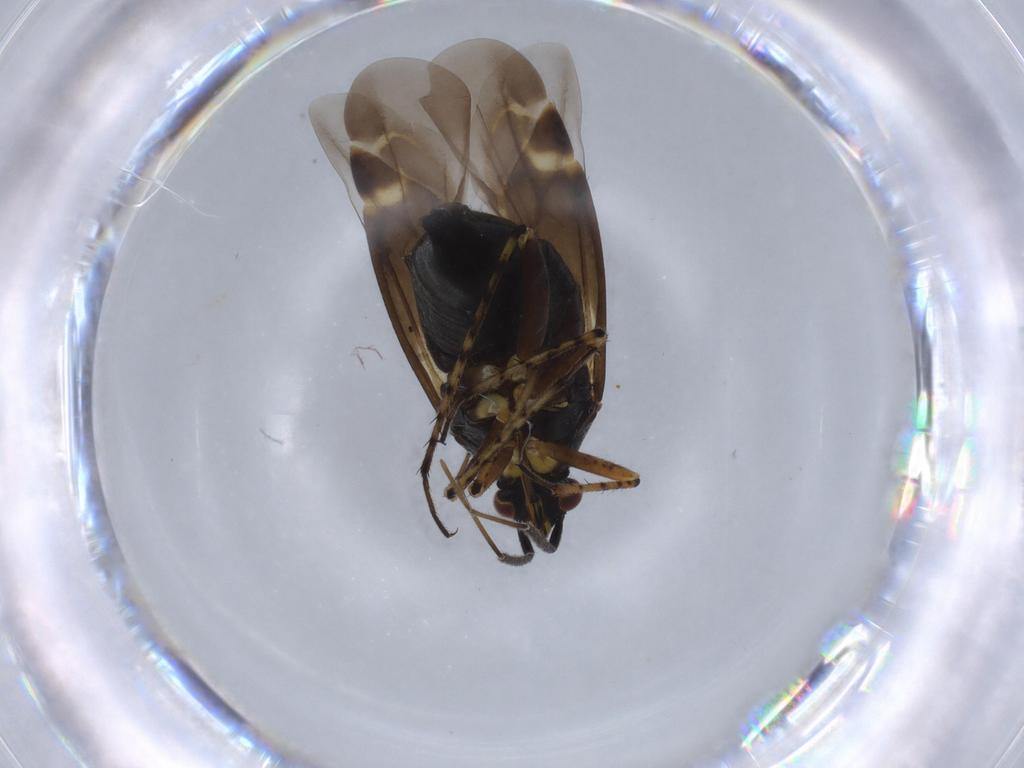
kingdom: Animalia
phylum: Arthropoda
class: Insecta
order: Hemiptera
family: Miridae
